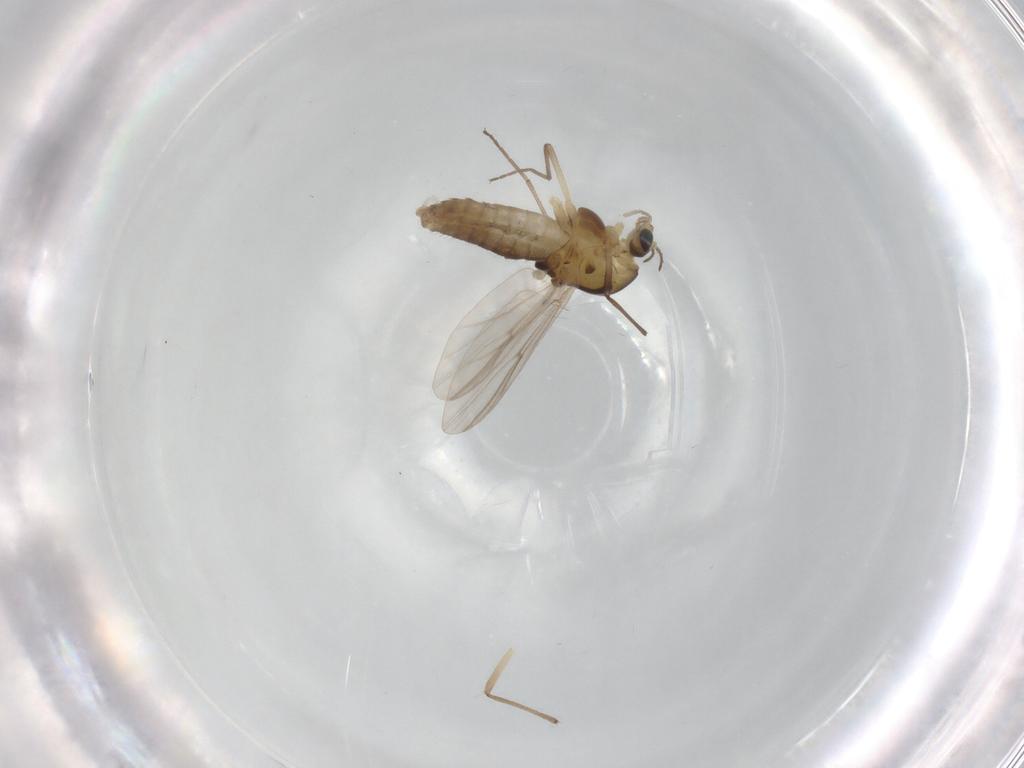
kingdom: Animalia
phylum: Arthropoda
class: Insecta
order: Diptera
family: Chironomidae
